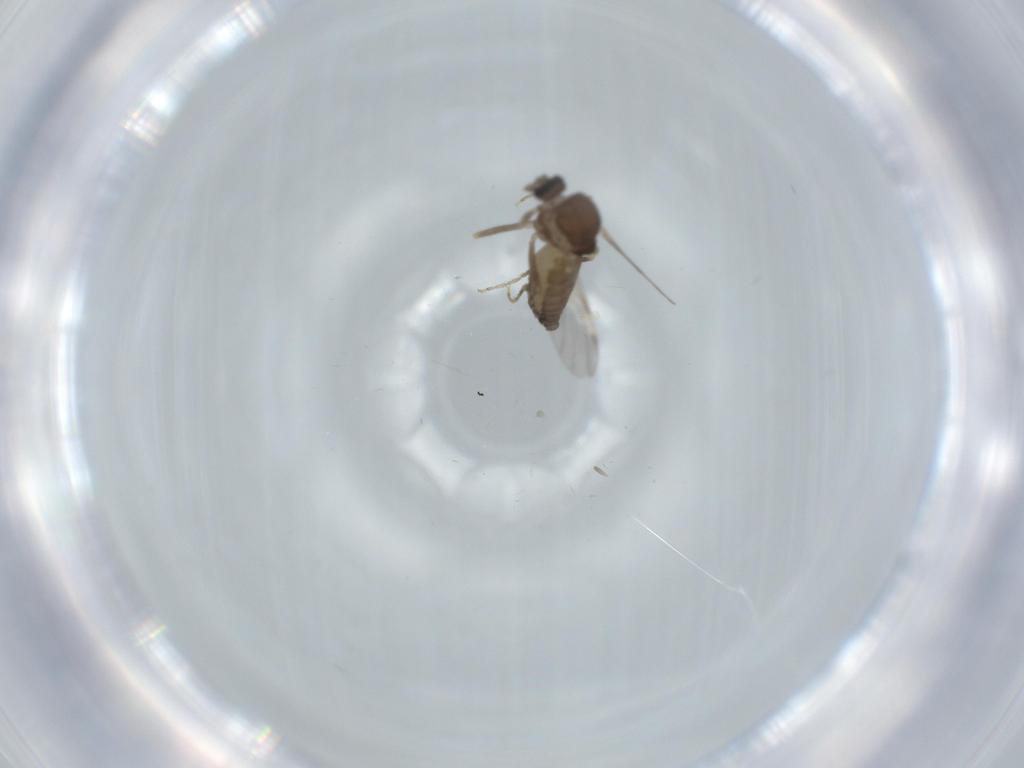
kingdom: Animalia
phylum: Arthropoda
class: Insecta
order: Diptera
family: Ceratopogonidae
